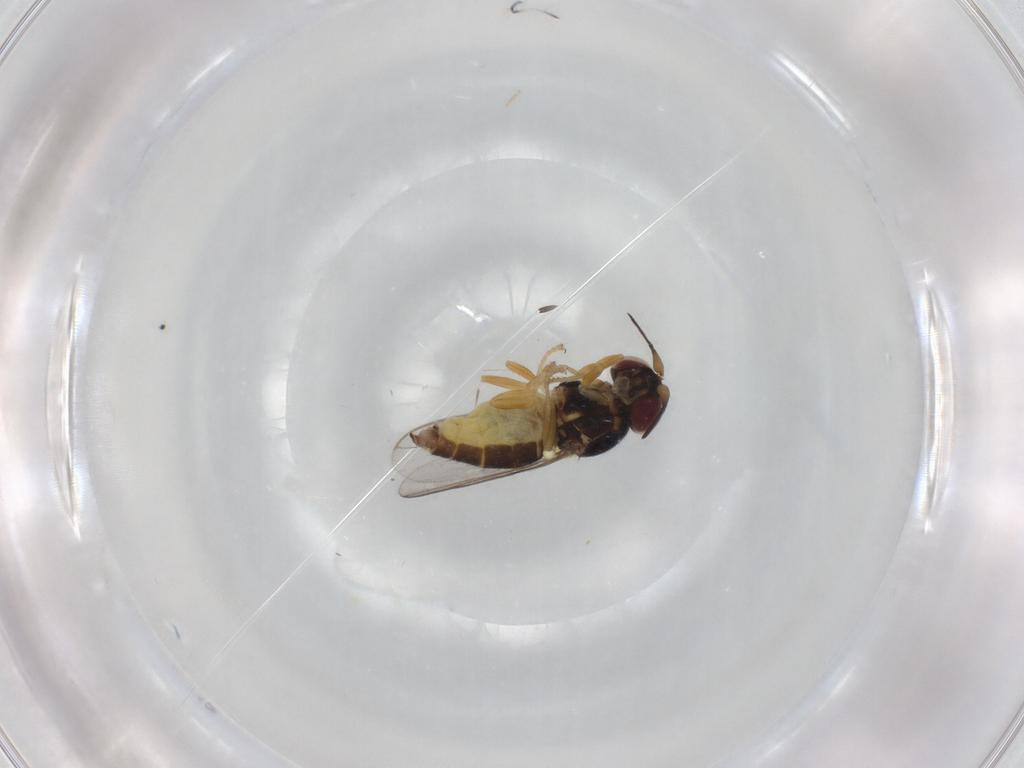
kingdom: Animalia
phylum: Arthropoda
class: Insecta
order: Diptera
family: Chloropidae
